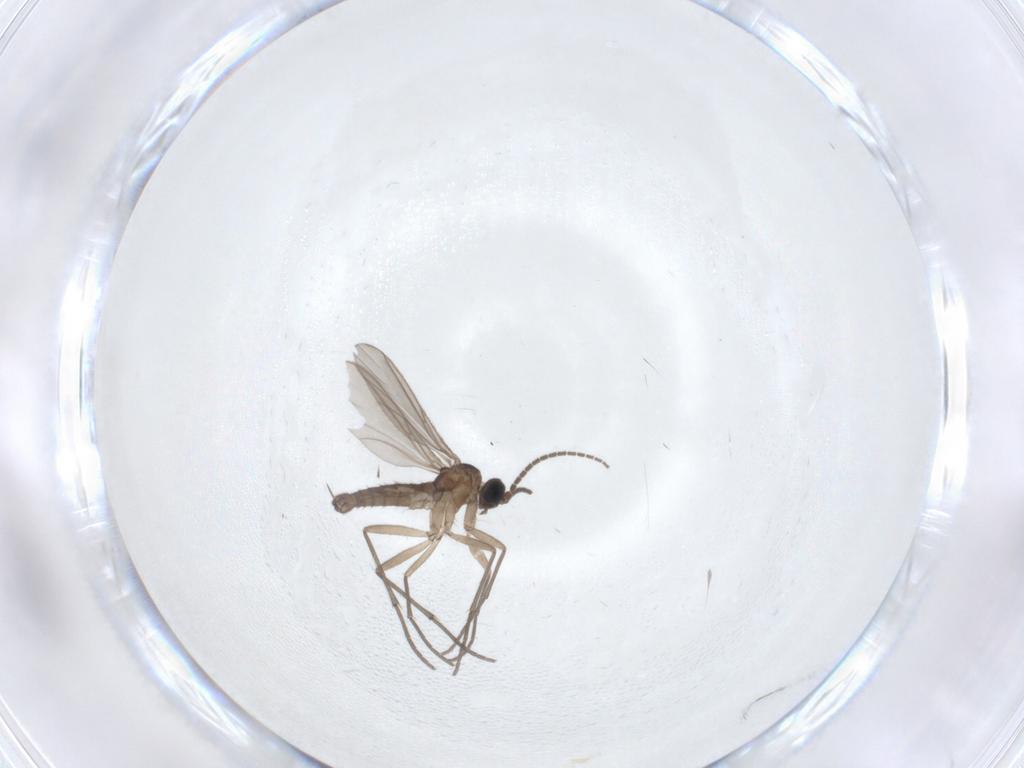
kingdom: Animalia
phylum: Arthropoda
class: Insecta
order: Diptera
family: Sciaridae
